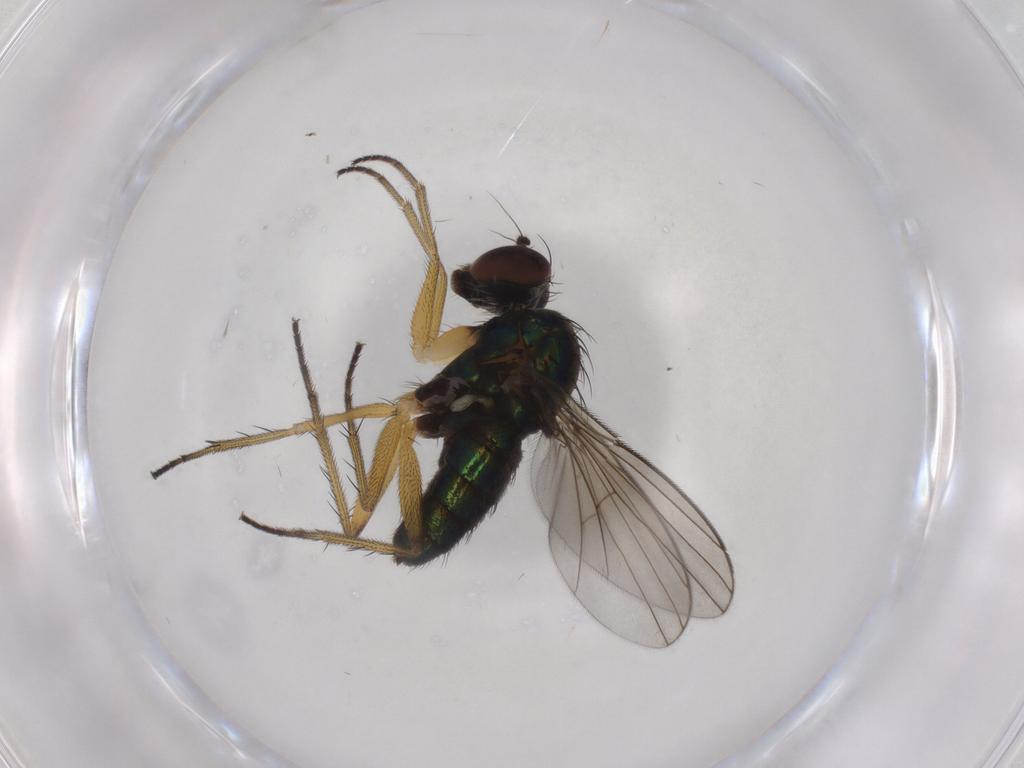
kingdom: Animalia
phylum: Arthropoda
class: Insecta
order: Diptera
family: Dolichopodidae
